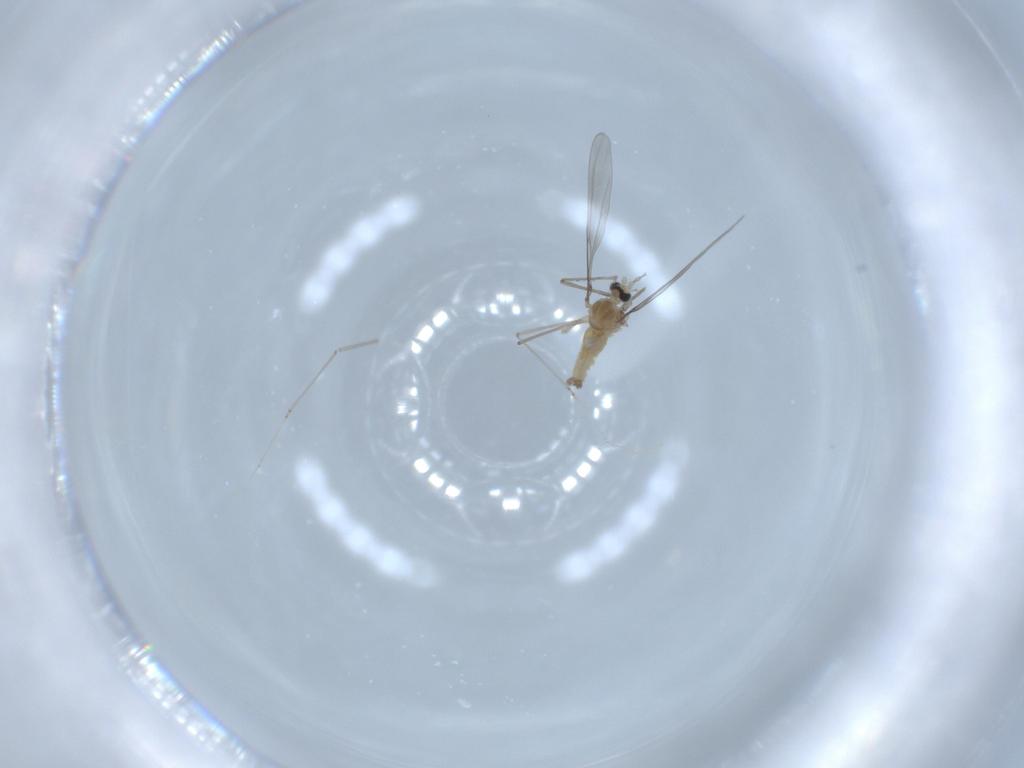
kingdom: Animalia
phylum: Arthropoda
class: Insecta
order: Diptera
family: Cecidomyiidae
